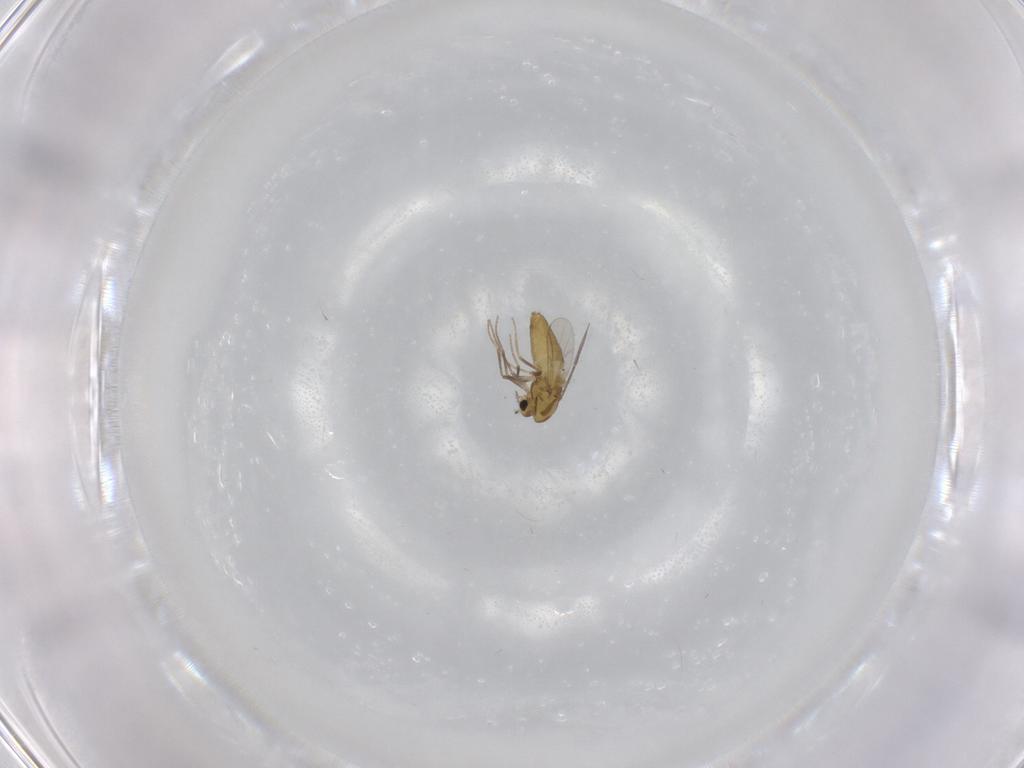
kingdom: Animalia
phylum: Arthropoda
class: Insecta
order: Diptera
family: Chironomidae
